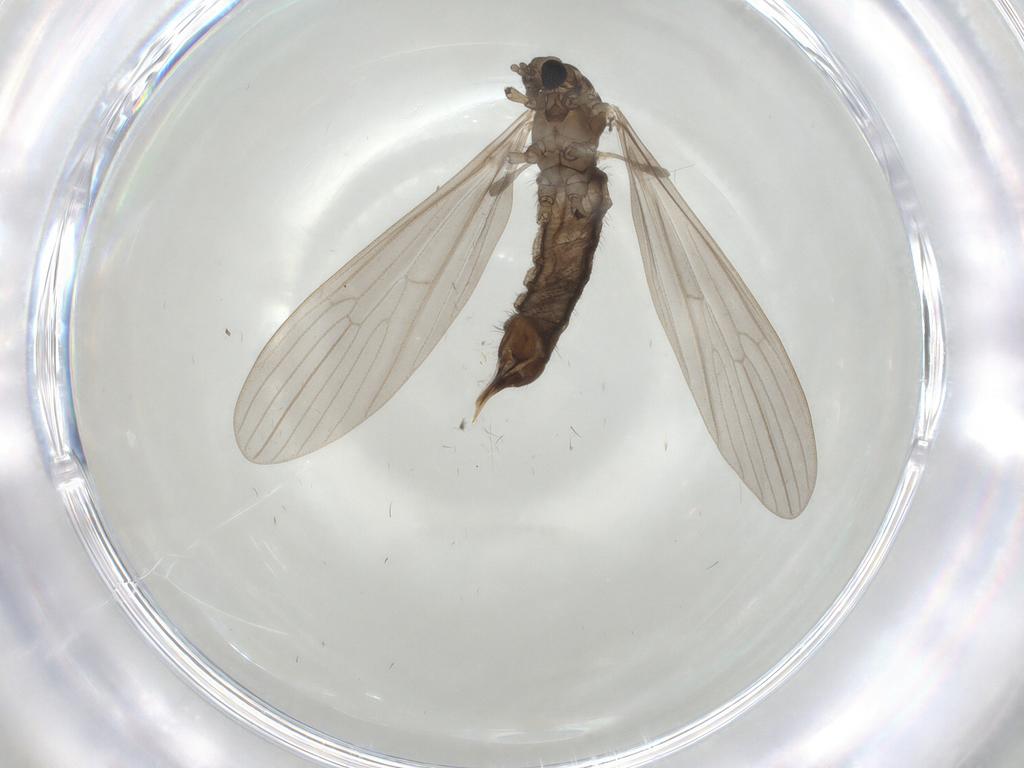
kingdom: Animalia
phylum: Arthropoda
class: Insecta
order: Diptera
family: Limoniidae
